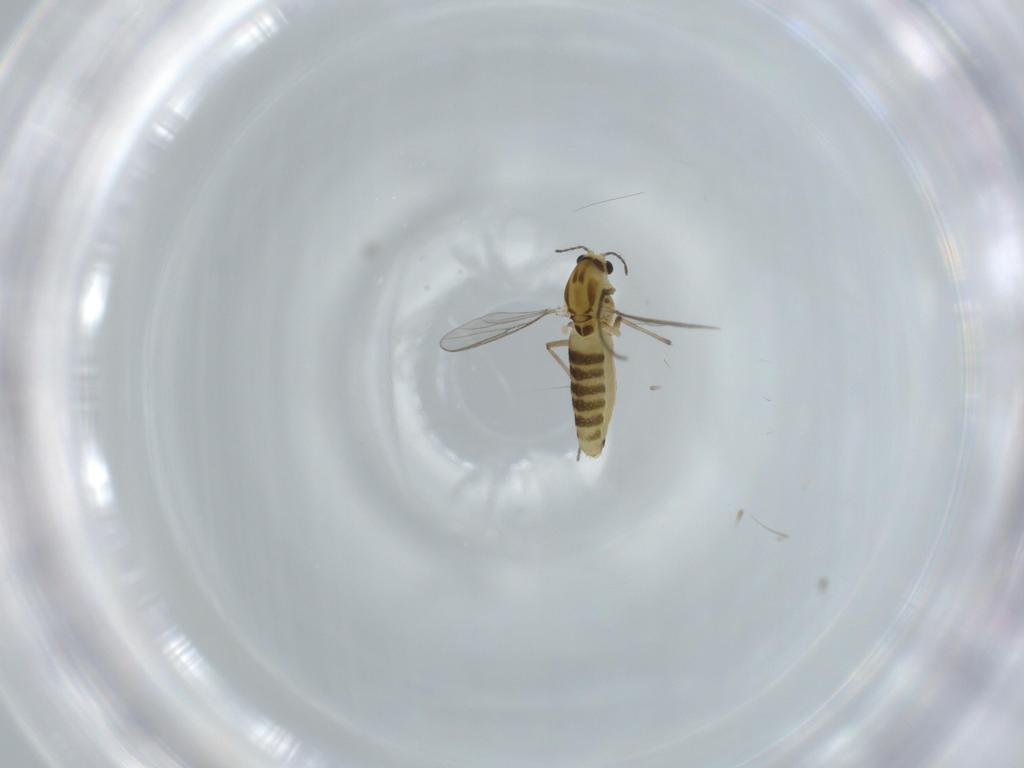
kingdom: Animalia
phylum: Arthropoda
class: Insecta
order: Diptera
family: Chironomidae
